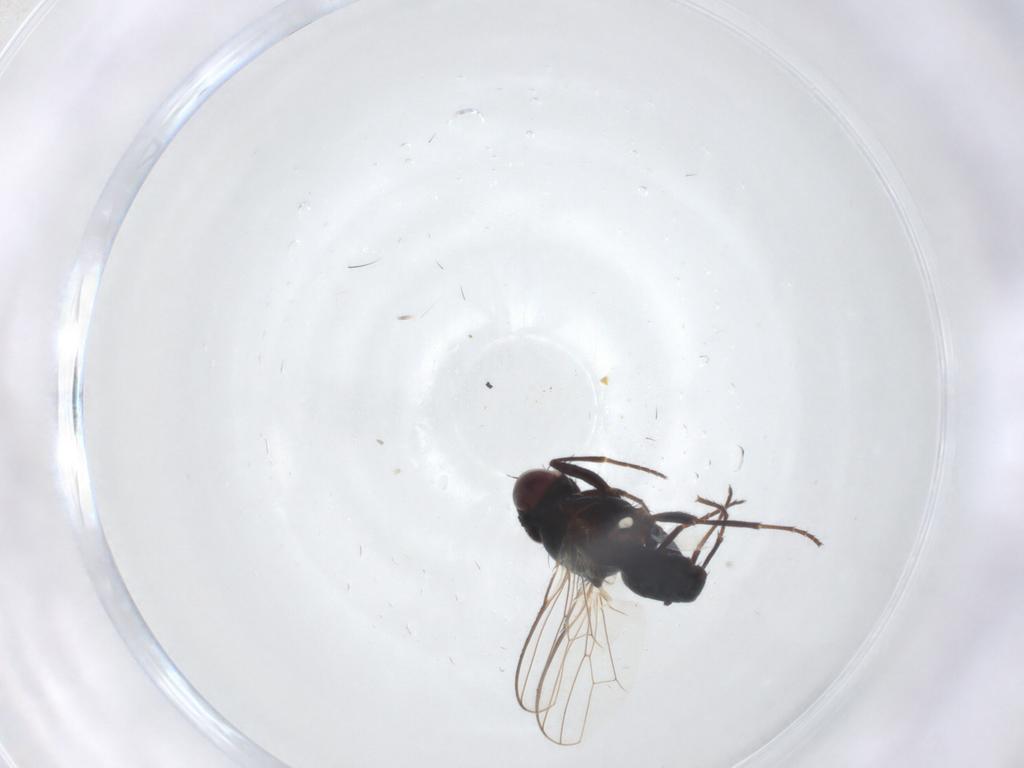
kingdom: Animalia
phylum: Arthropoda
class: Insecta
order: Diptera
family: Carnidae
